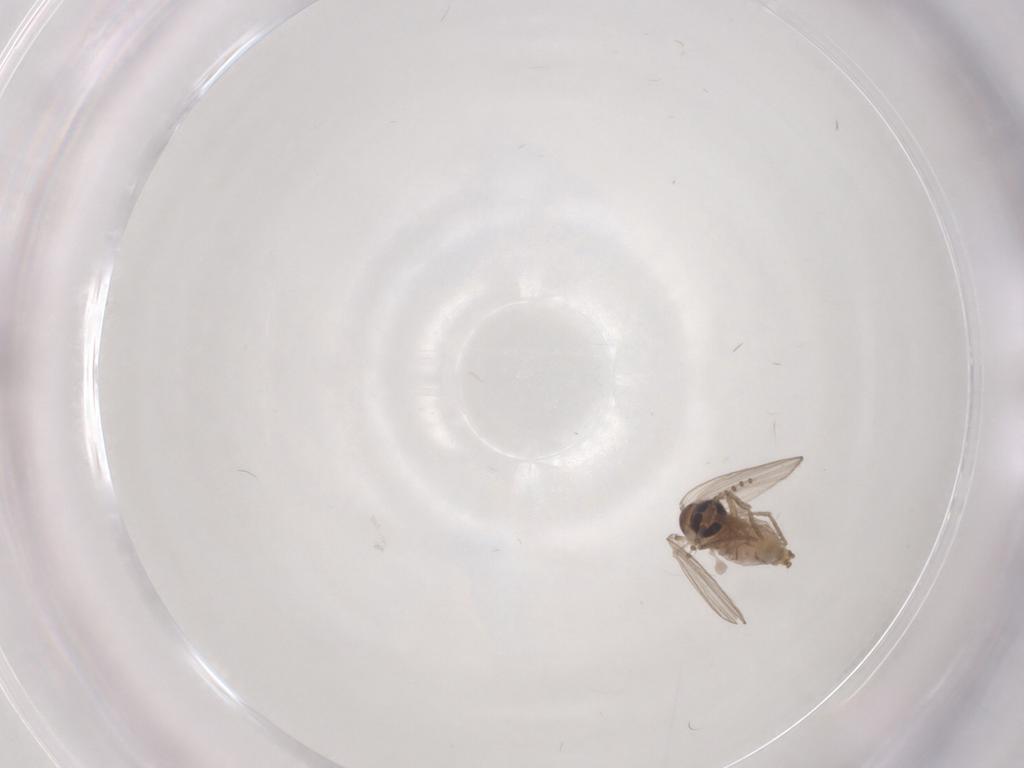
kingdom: Animalia
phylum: Arthropoda
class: Insecta
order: Diptera
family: Psychodidae
